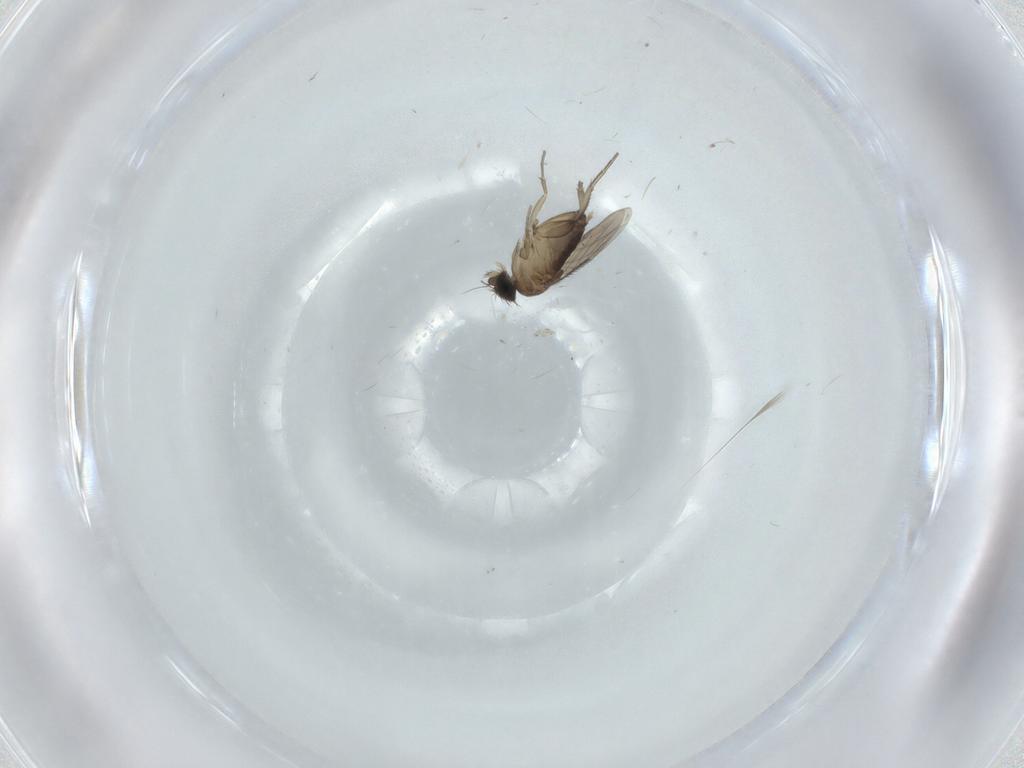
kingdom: Animalia
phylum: Arthropoda
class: Insecta
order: Diptera
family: Phoridae
